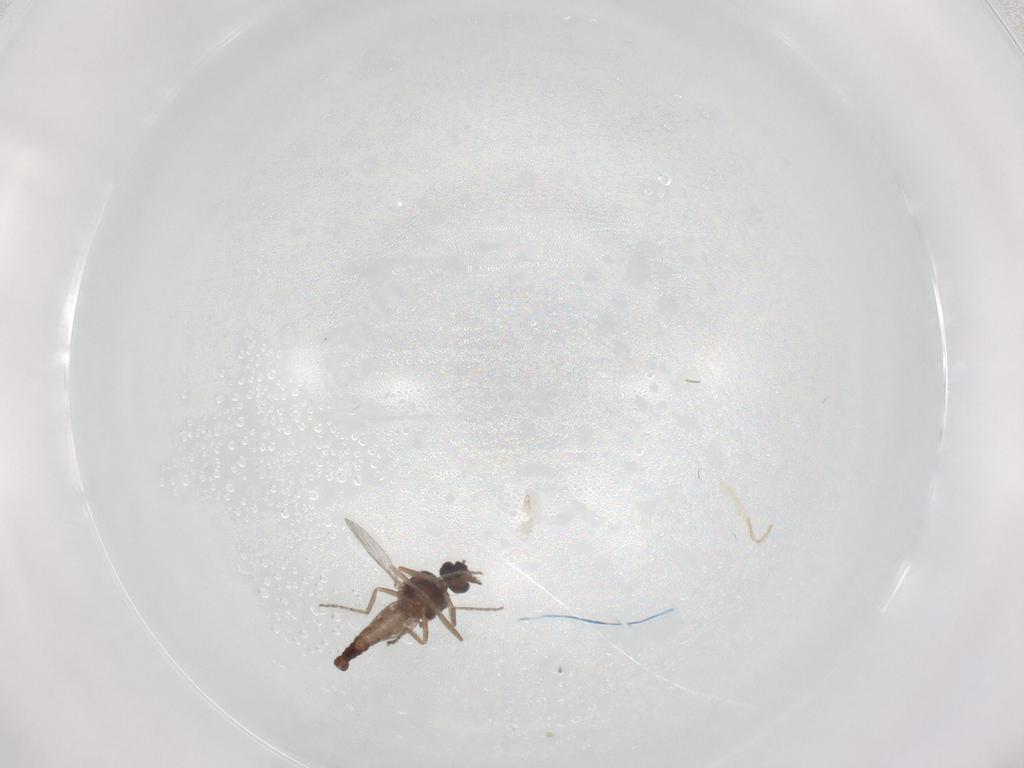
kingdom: Animalia
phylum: Arthropoda
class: Insecta
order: Diptera
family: Ceratopogonidae
